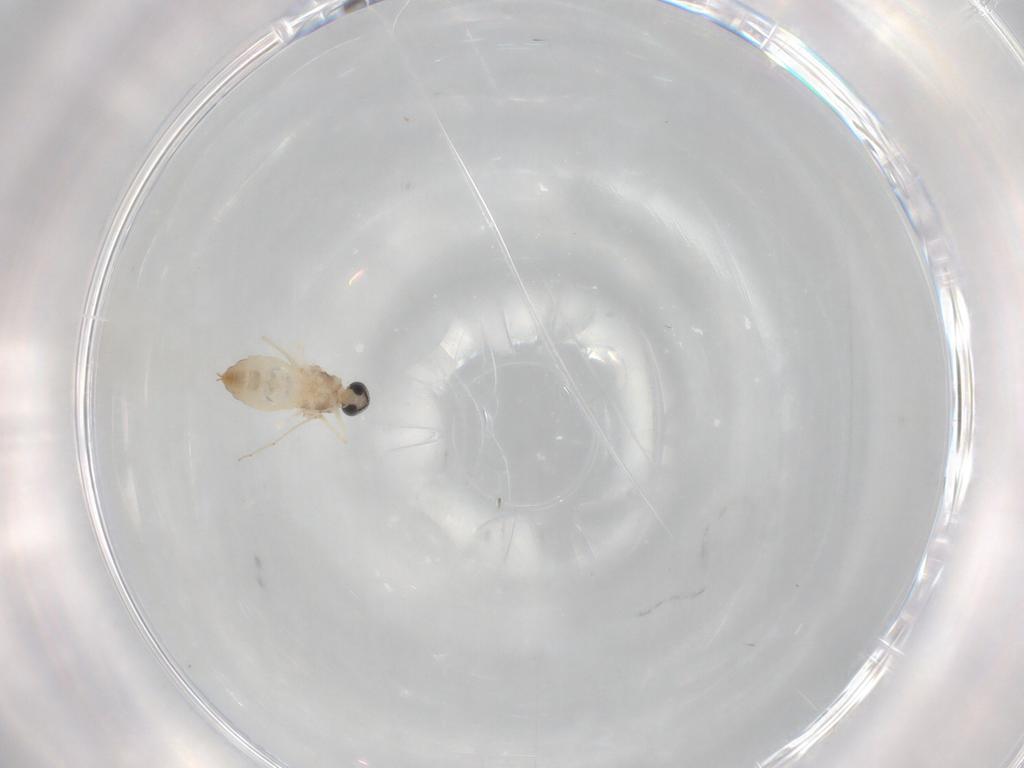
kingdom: Animalia
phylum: Arthropoda
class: Insecta
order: Diptera
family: Cecidomyiidae
